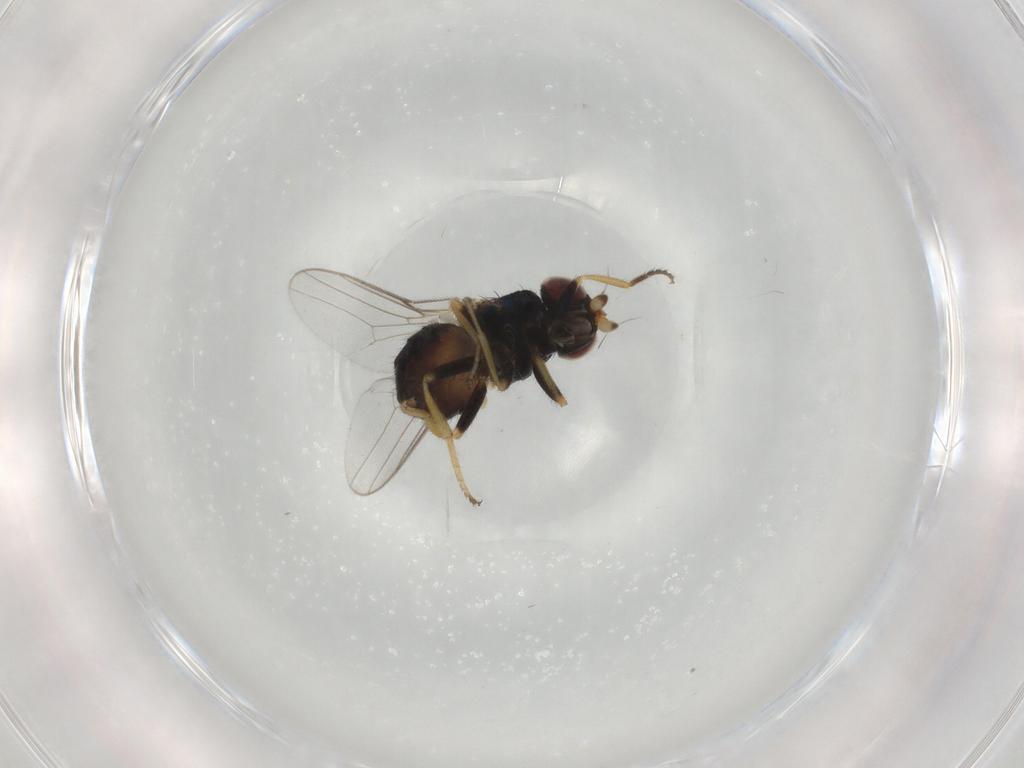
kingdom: Animalia
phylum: Arthropoda
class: Insecta
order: Diptera
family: Chloropidae
